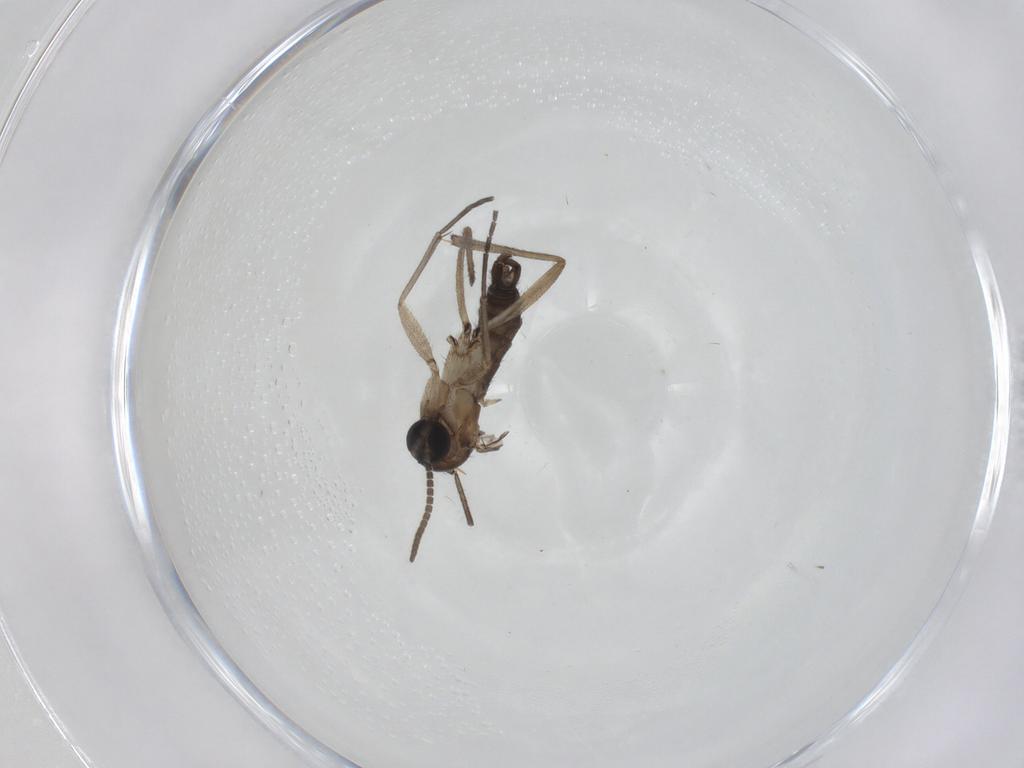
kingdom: Animalia
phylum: Arthropoda
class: Insecta
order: Diptera
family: Sciaridae
